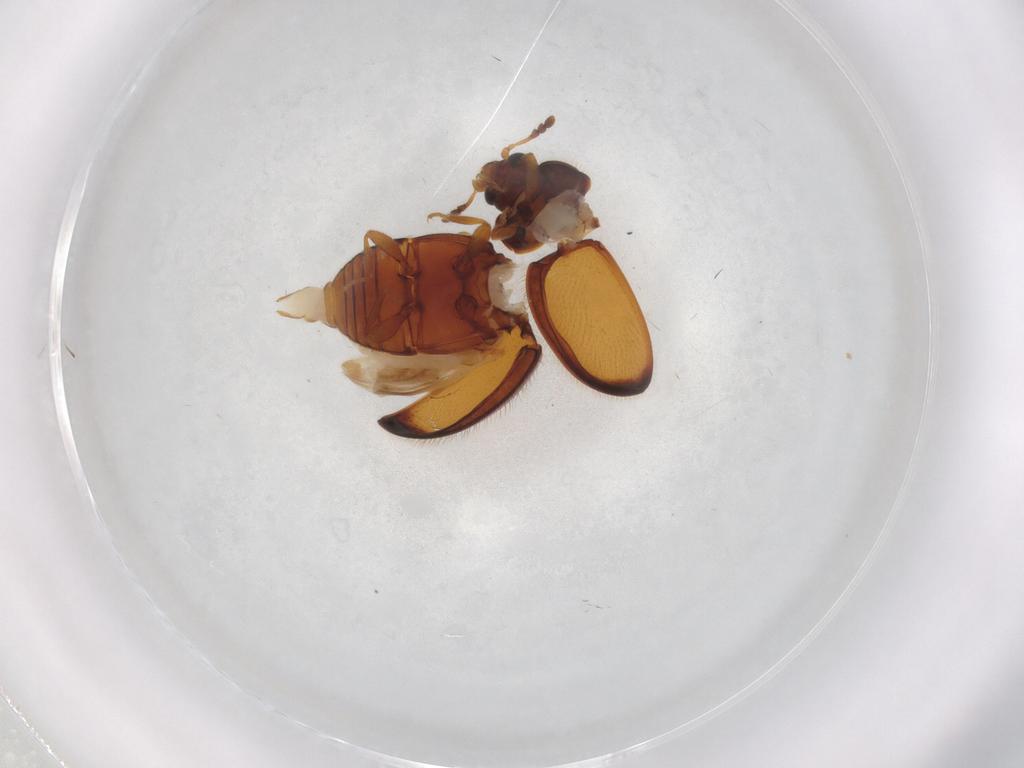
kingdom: Animalia
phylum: Arthropoda
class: Insecta
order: Coleoptera
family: Anamorphidae
